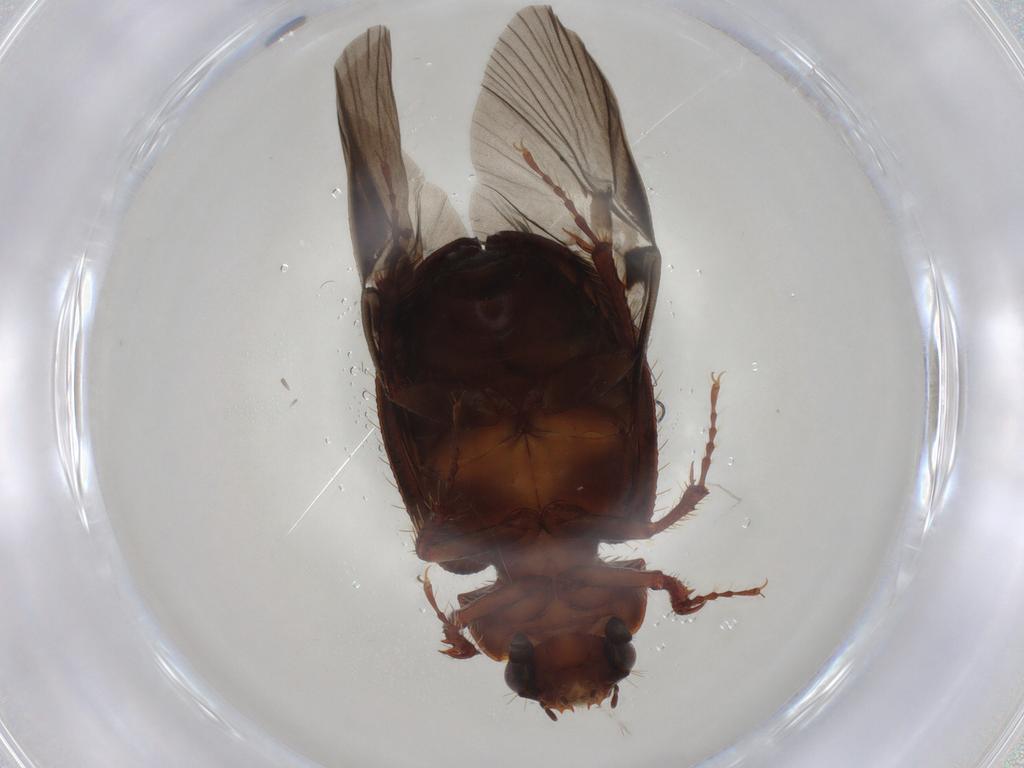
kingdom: Animalia
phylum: Arthropoda
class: Insecta
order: Coleoptera
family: Hybosoridae
